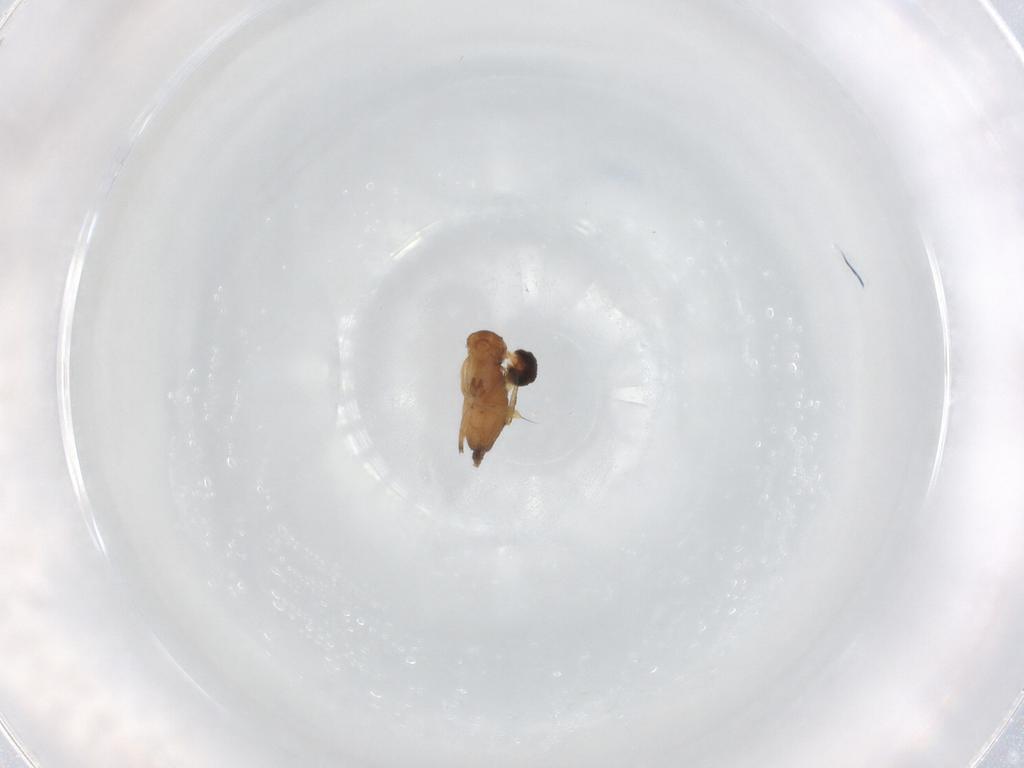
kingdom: Animalia
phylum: Arthropoda
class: Insecta
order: Diptera
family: Phoridae
